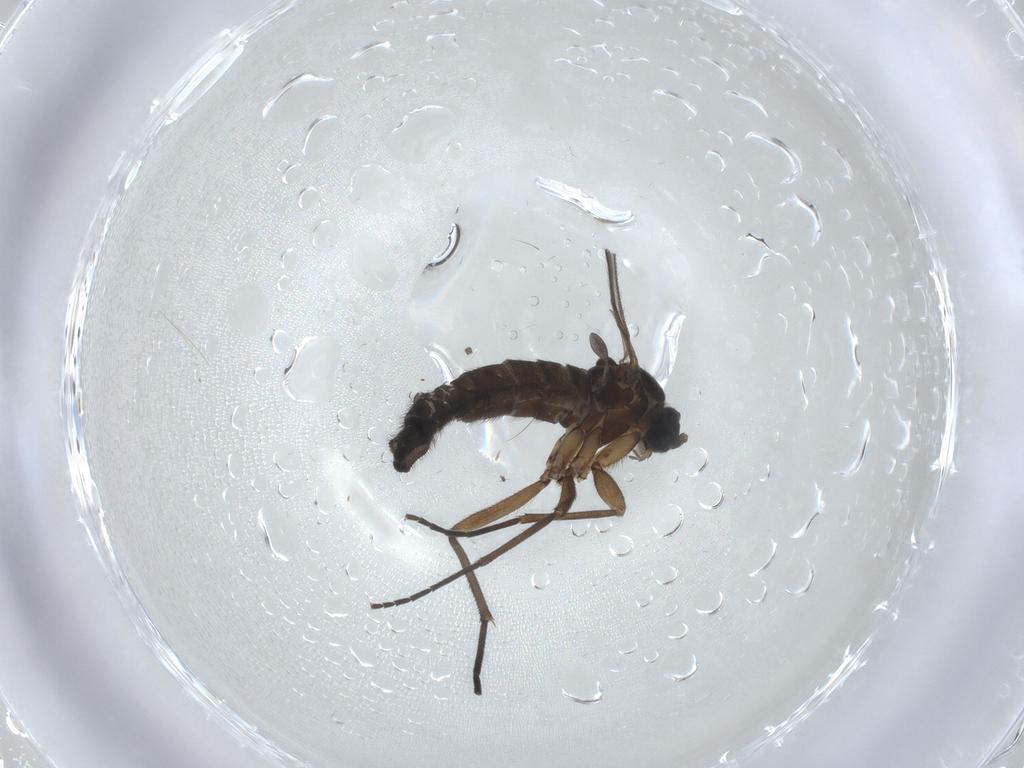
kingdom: Animalia
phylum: Arthropoda
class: Insecta
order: Diptera
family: Sciaridae
